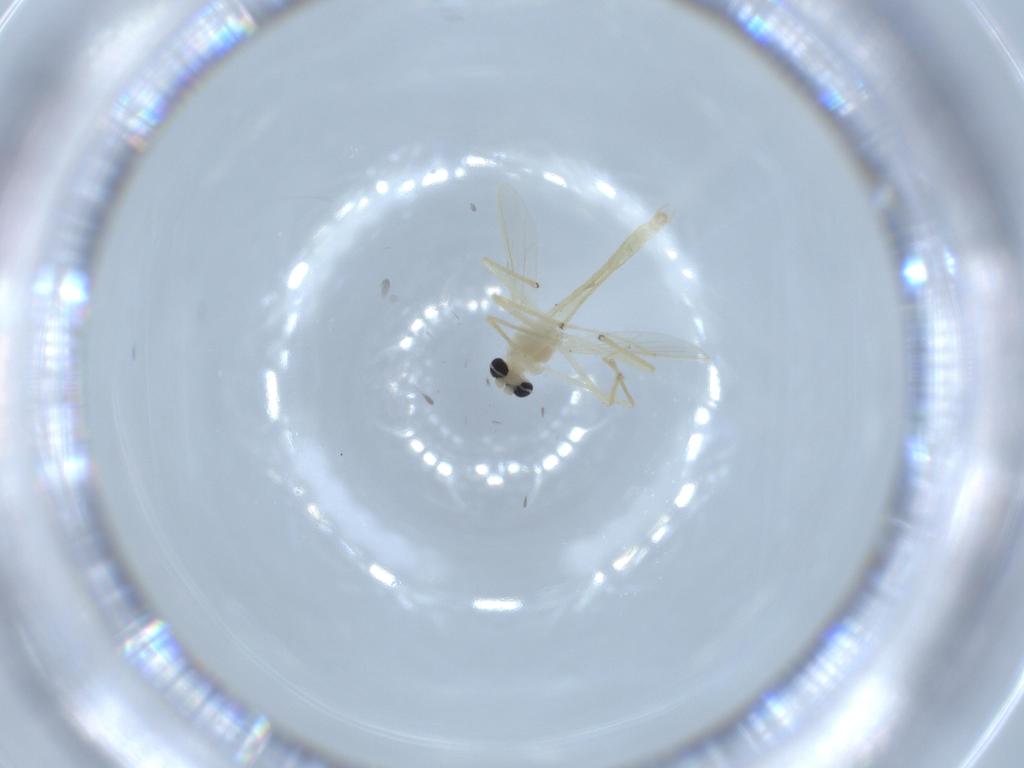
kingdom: Animalia
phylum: Arthropoda
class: Insecta
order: Diptera
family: Chironomidae
